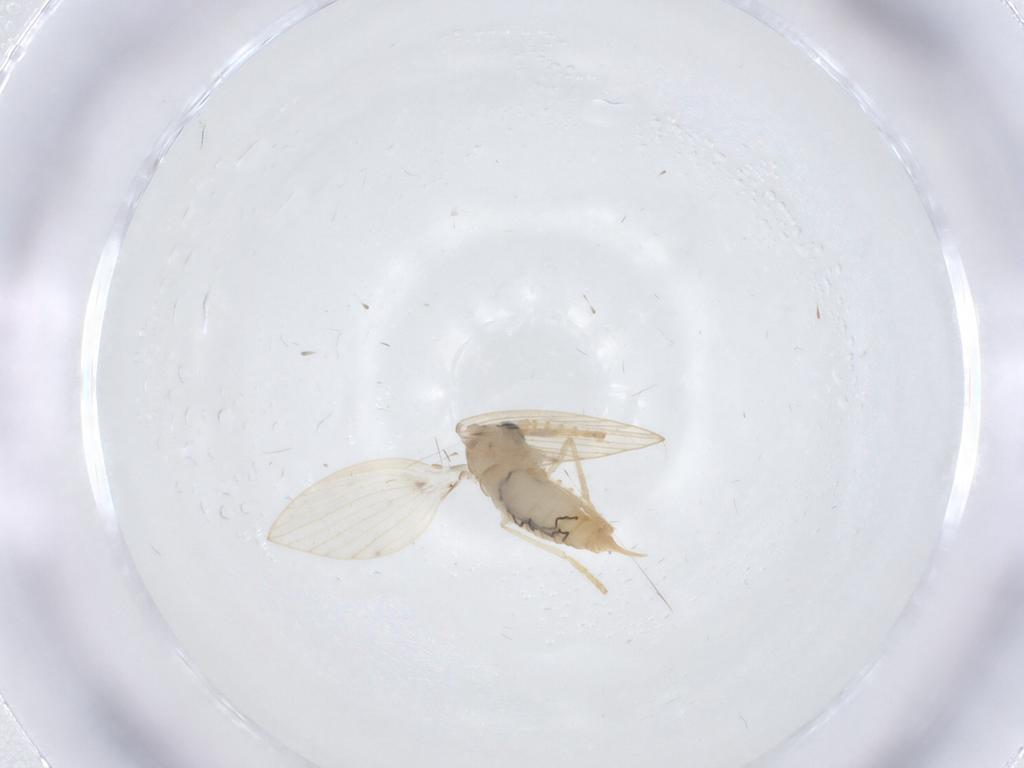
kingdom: Animalia
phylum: Arthropoda
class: Insecta
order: Diptera
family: Psychodidae
